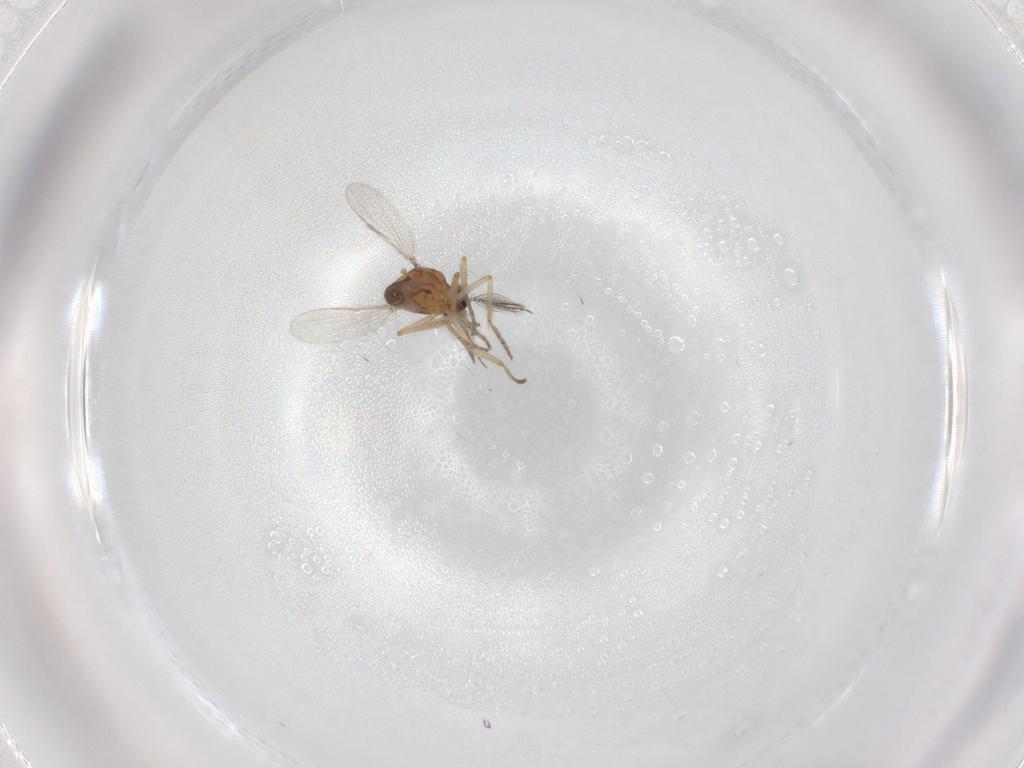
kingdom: Animalia
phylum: Arthropoda
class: Insecta
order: Diptera
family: Ceratopogonidae
